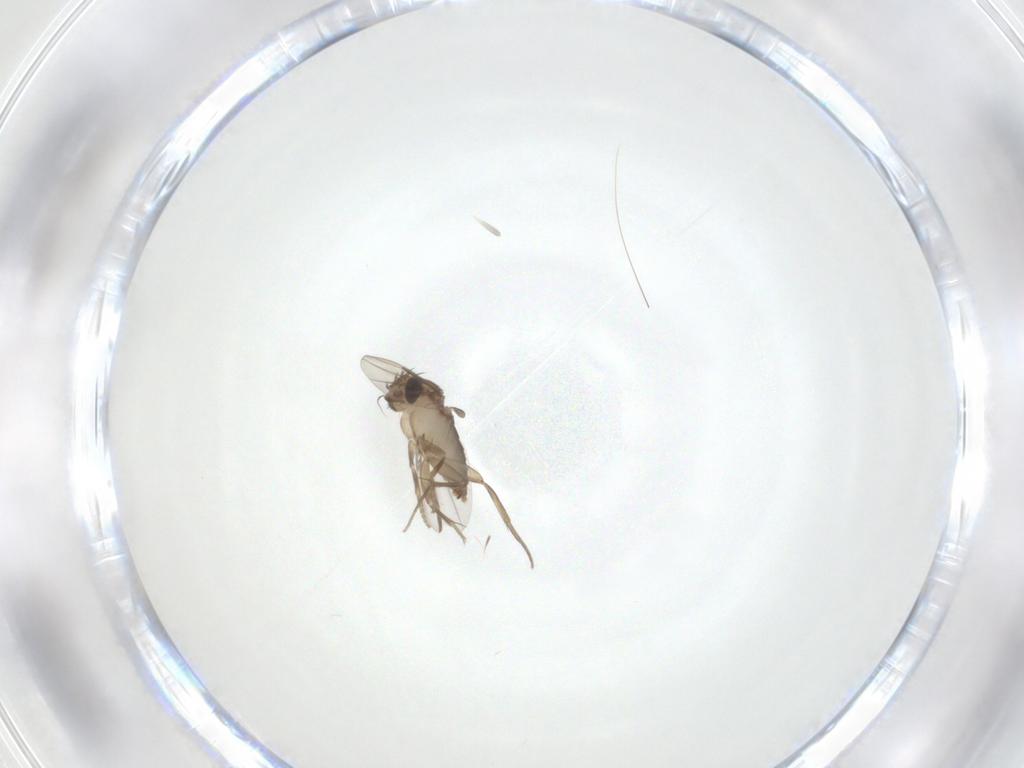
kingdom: Animalia
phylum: Arthropoda
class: Insecta
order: Diptera
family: Phoridae
